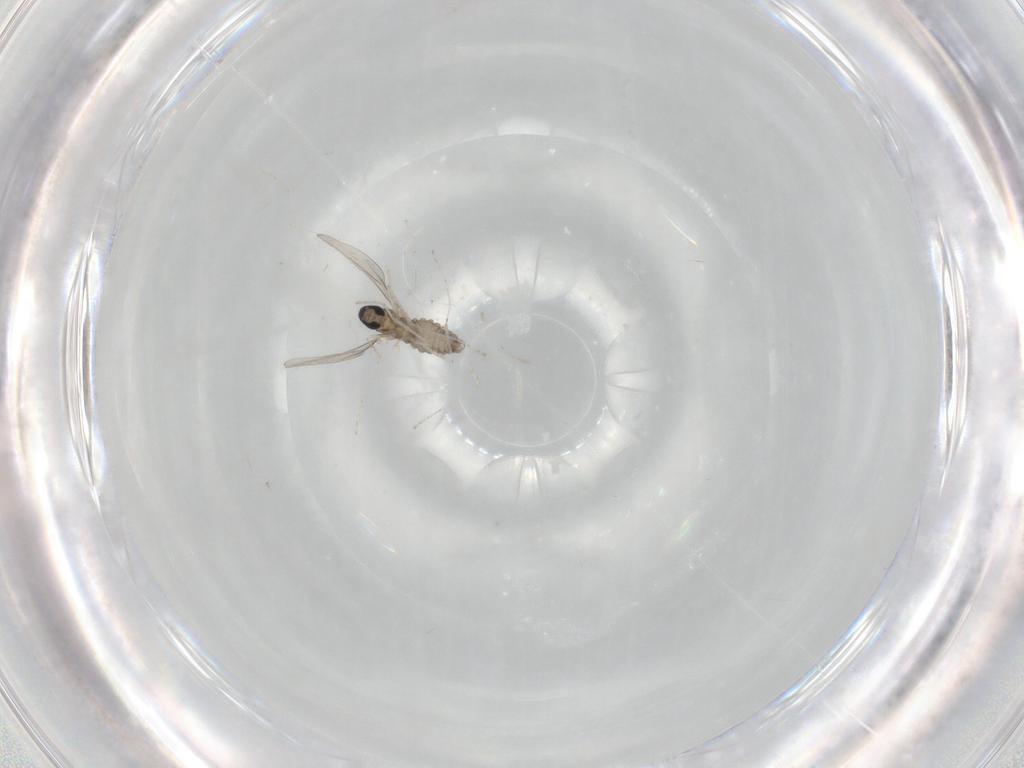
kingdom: Animalia
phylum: Arthropoda
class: Insecta
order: Diptera
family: Cecidomyiidae
